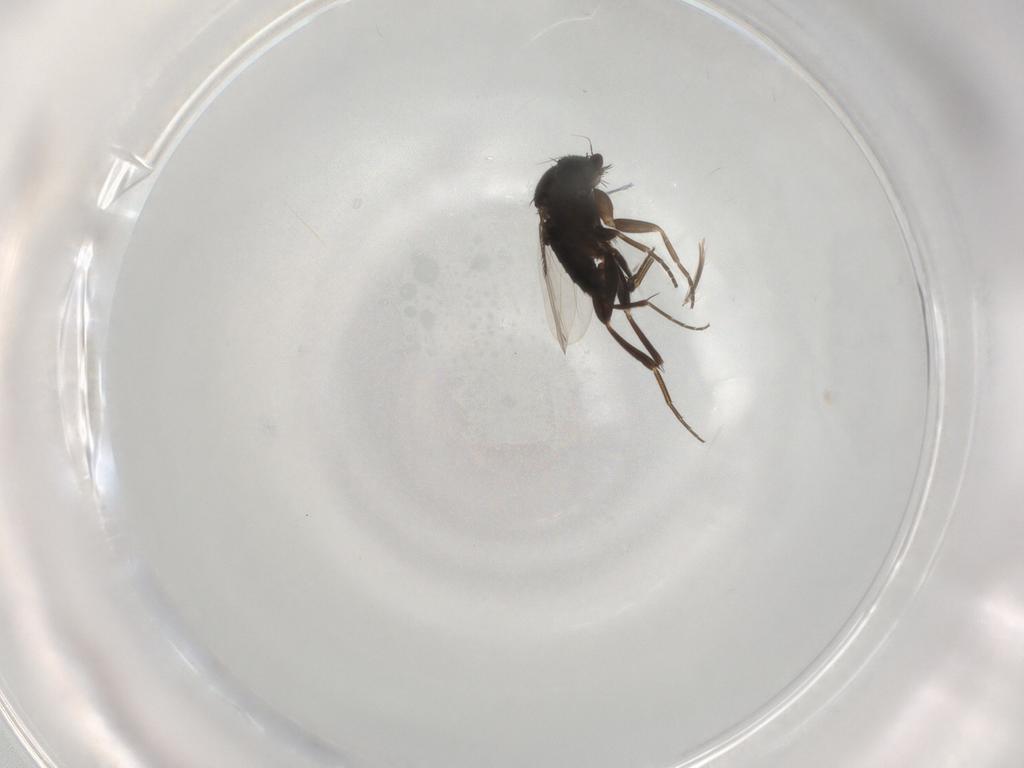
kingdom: Animalia
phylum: Arthropoda
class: Insecta
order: Diptera
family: Phoridae
